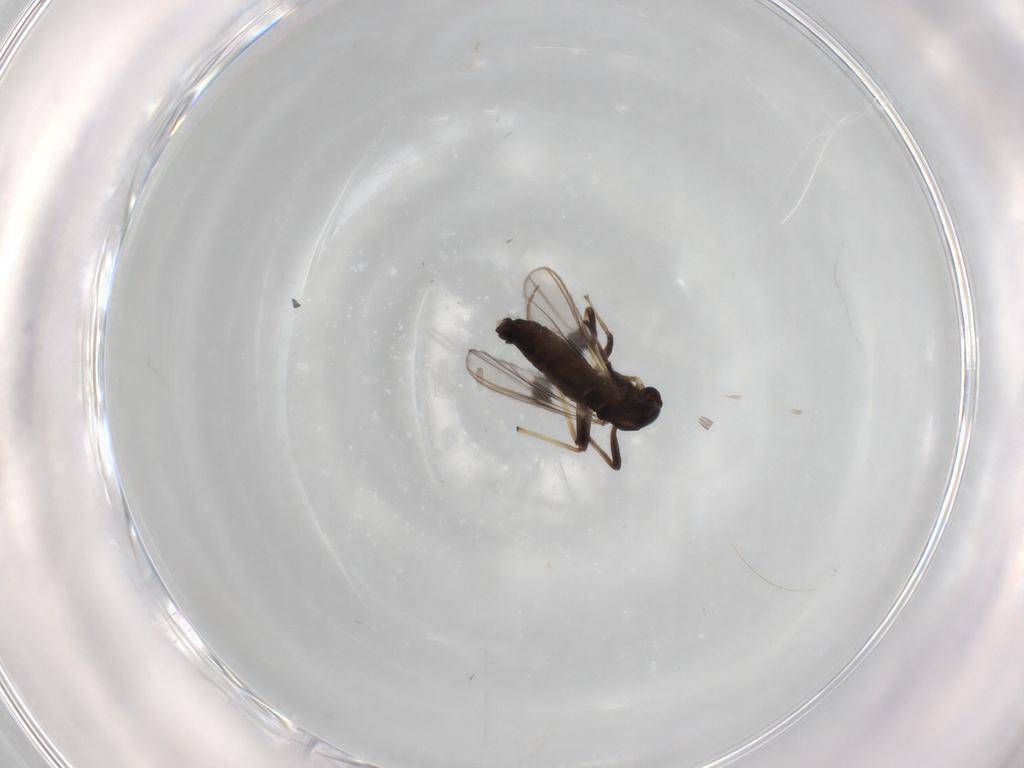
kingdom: Animalia
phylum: Arthropoda
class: Insecta
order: Diptera
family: Chironomidae
